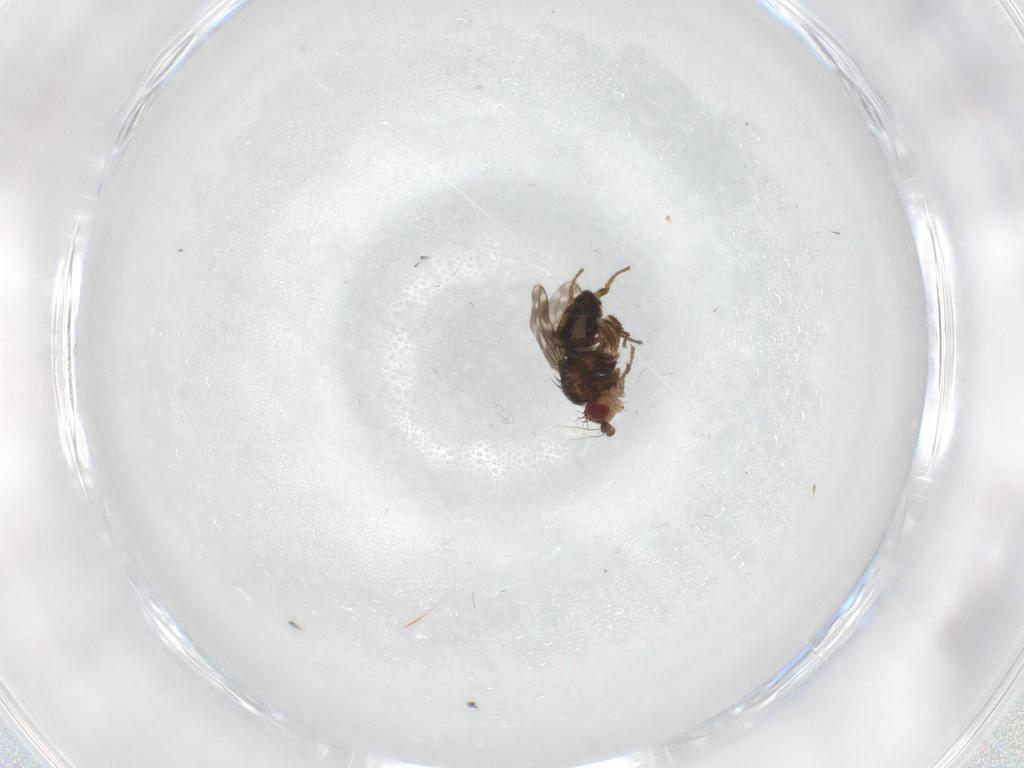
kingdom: Animalia
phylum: Arthropoda
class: Insecta
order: Diptera
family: Sphaeroceridae
